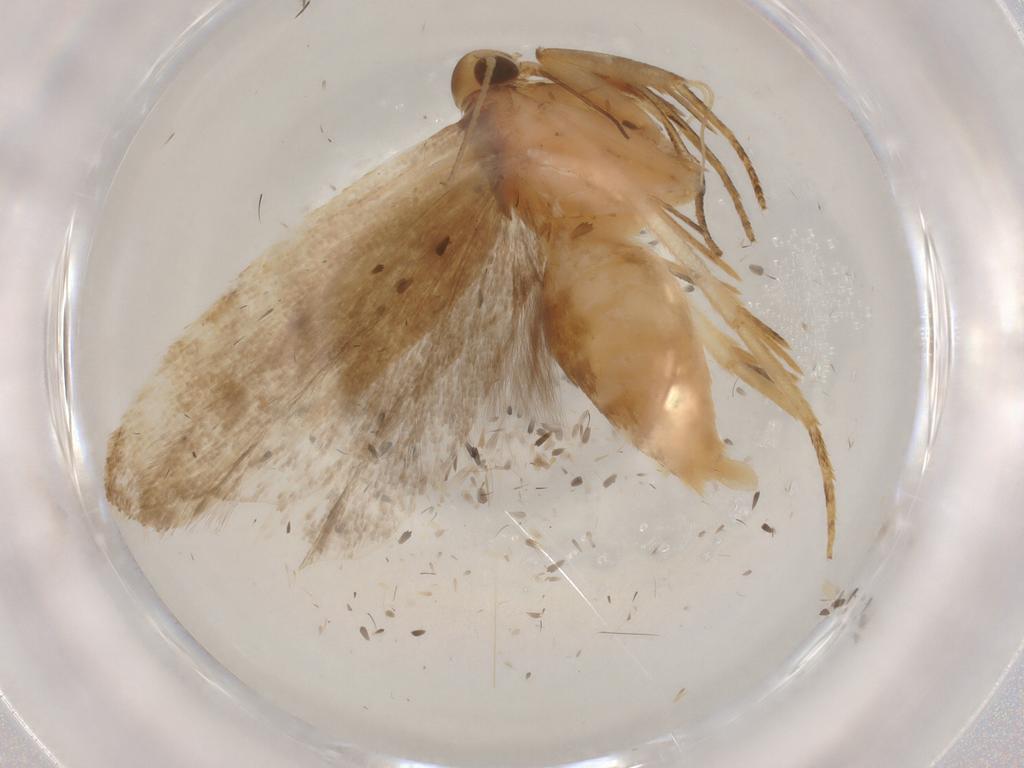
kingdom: Animalia
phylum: Arthropoda
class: Insecta
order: Lepidoptera
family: Geometridae
